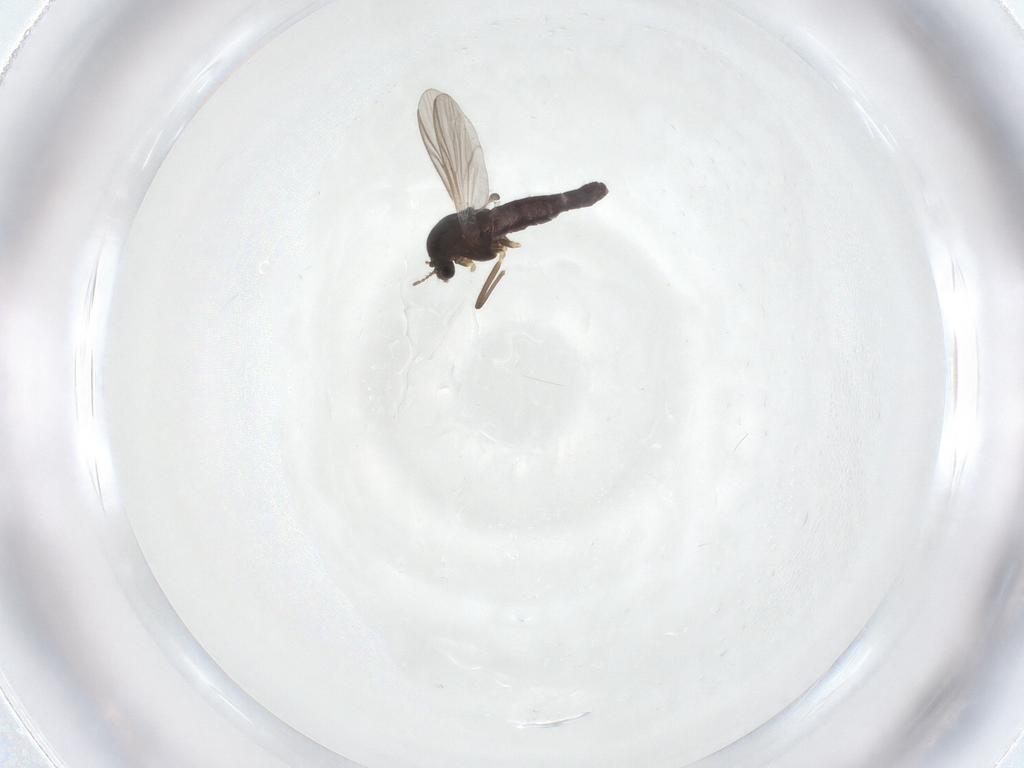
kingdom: Animalia
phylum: Arthropoda
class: Insecta
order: Diptera
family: Chironomidae
